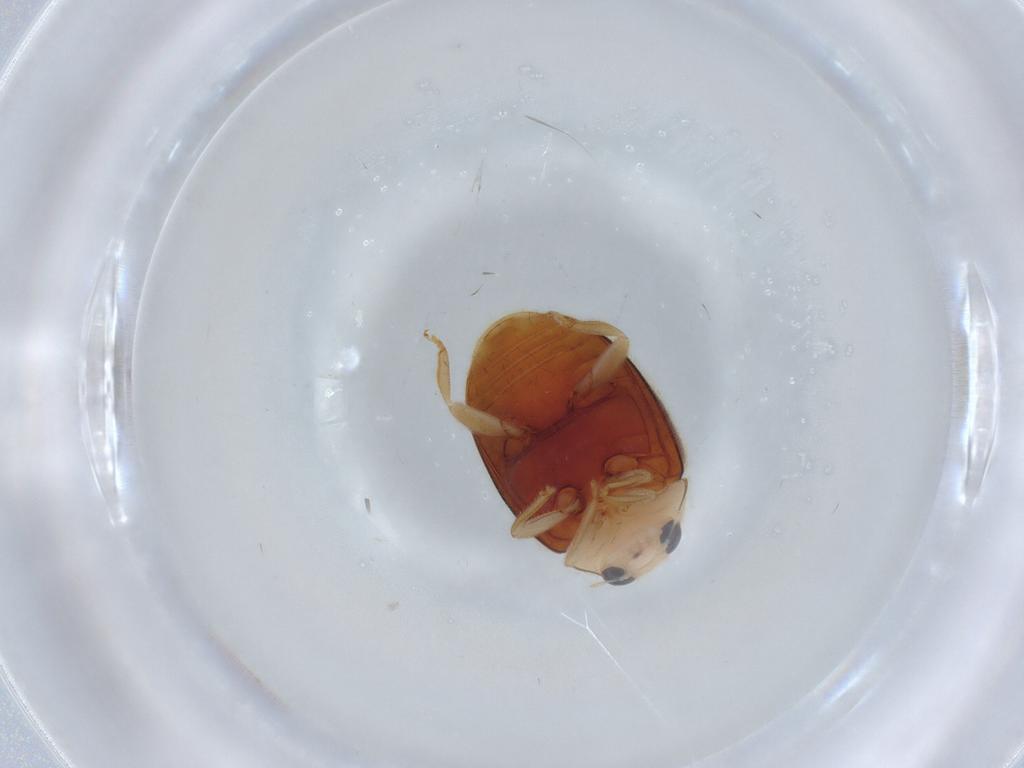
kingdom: Animalia
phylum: Arthropoda
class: Insecta
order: Coleoptera
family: Coccinellidae
